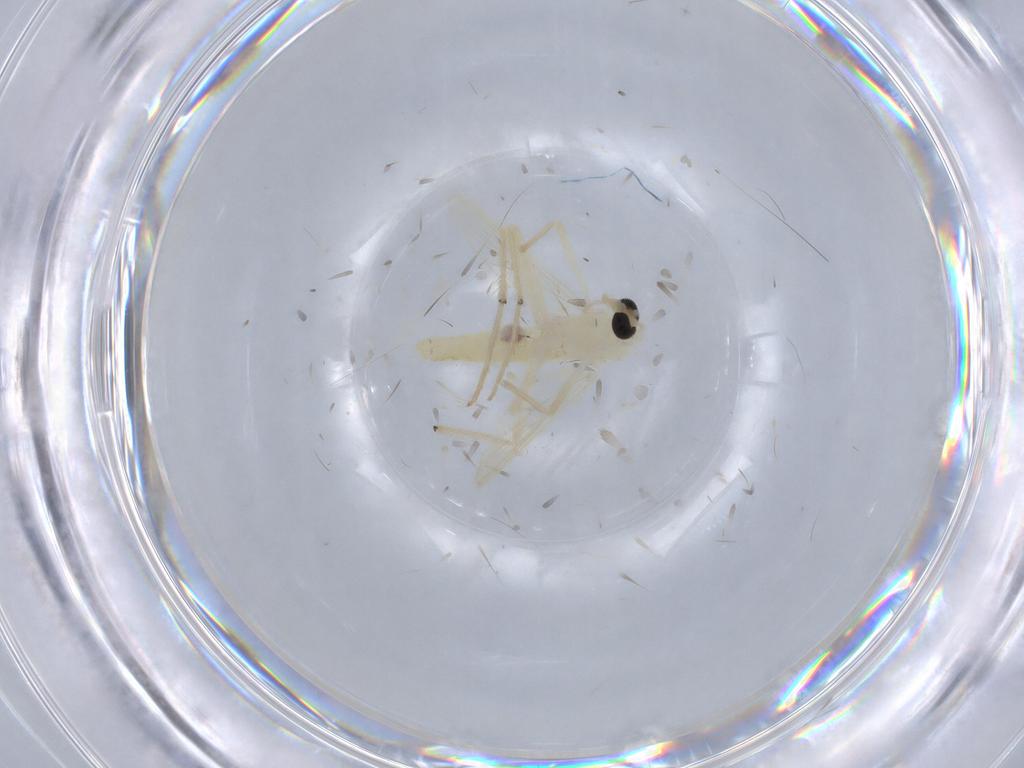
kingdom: Animalia
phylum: Arthropoda
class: Insecta
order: Diptera
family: Chironomidae
